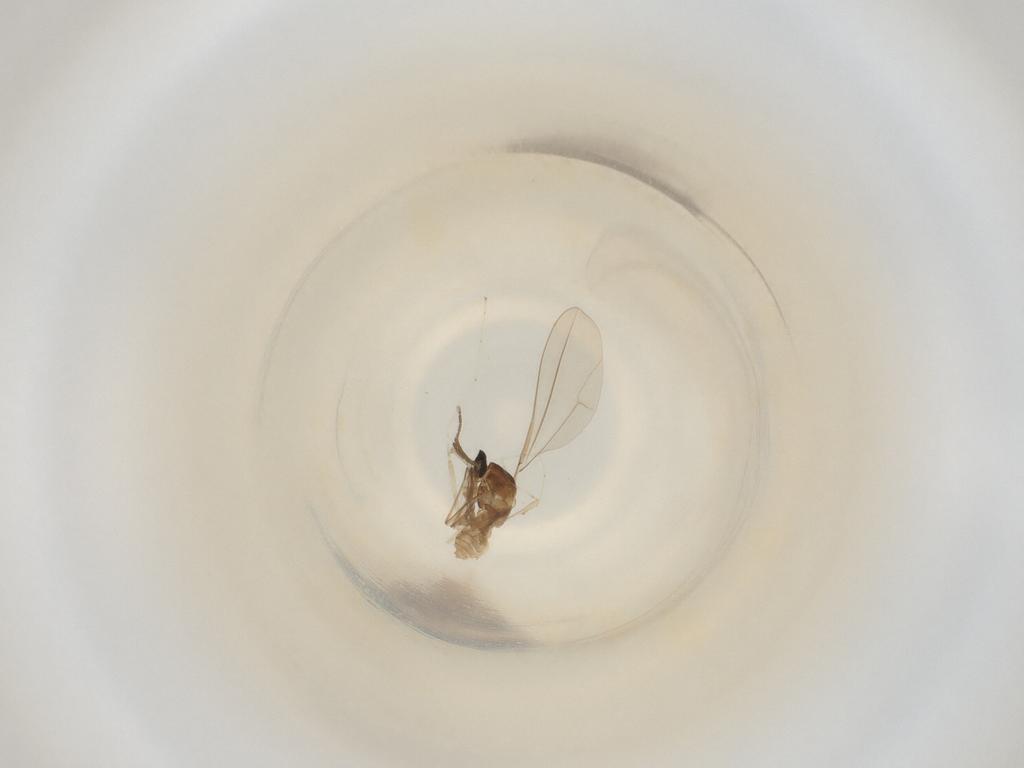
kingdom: Animalia
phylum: Arthropoda
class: Insecta
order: Diptera
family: Cecidomyiidae
